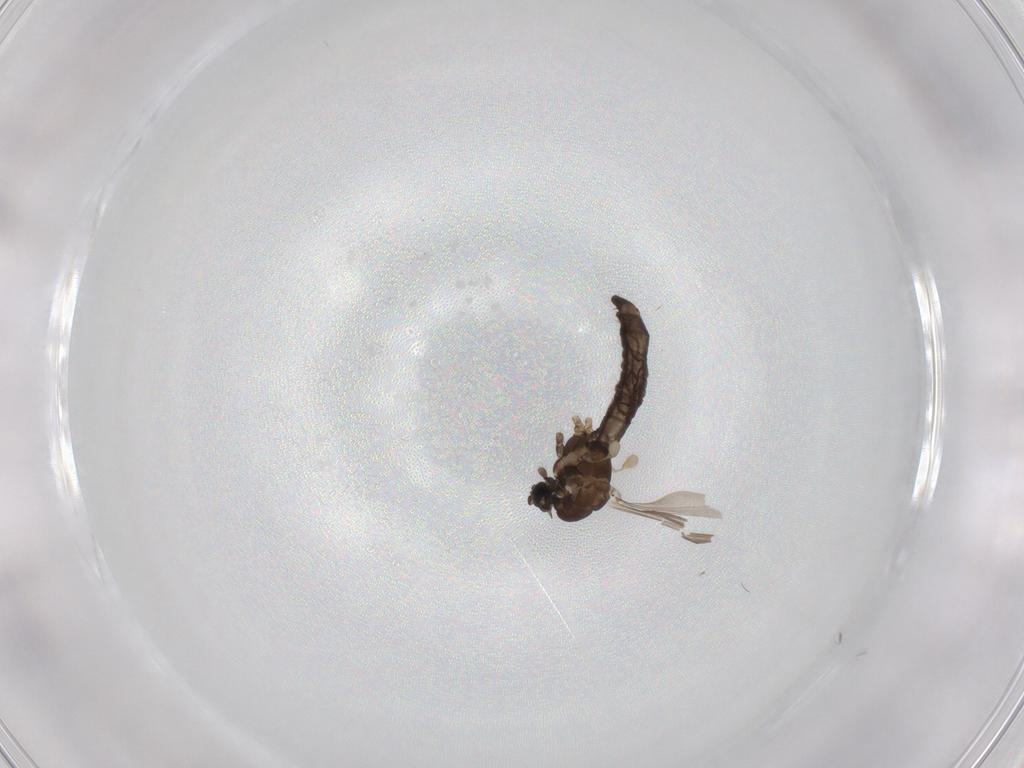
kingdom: Animalia
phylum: Arthropoda
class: Insecta
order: Diptera
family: Limoniidae
